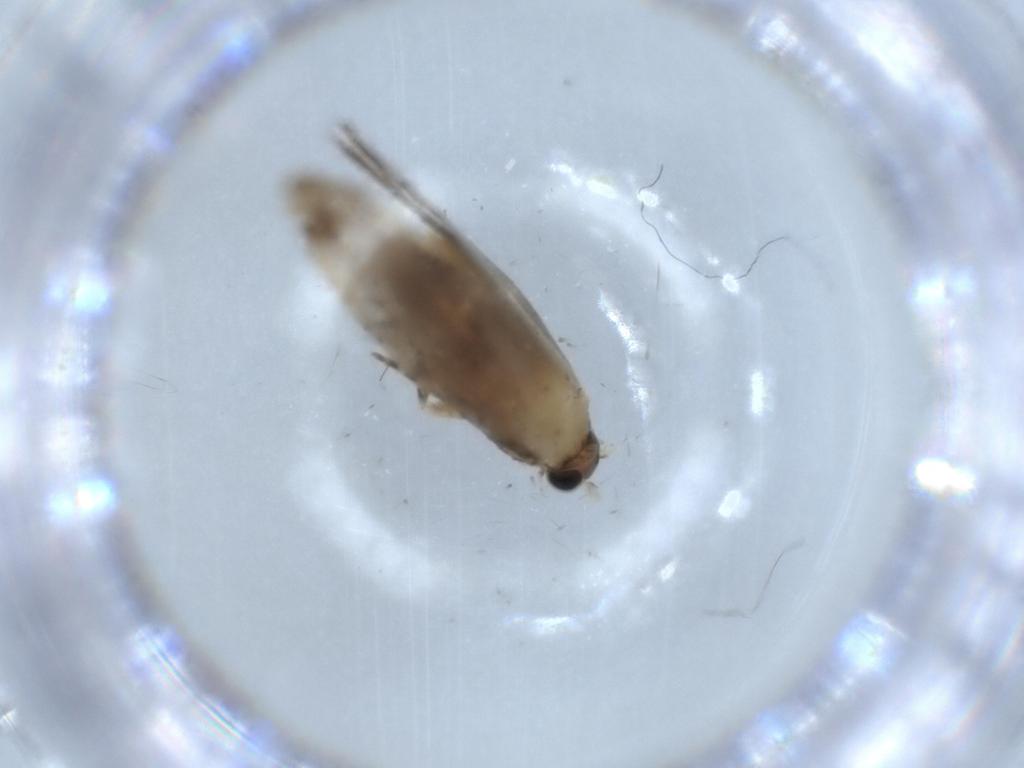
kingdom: Animalia
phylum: Arthropoda
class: Insecta
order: Lepidoptera
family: Tineidae
